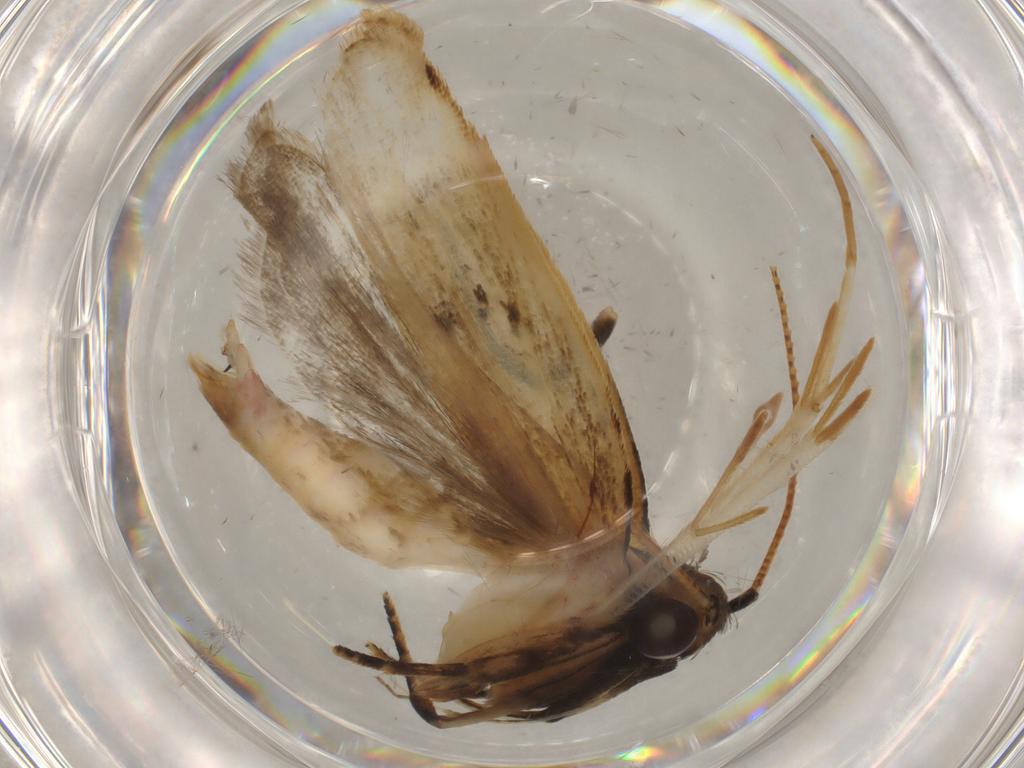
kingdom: Animalia
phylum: Arthropoda
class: Insecta
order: Lepidoptera
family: Gelechiidae
